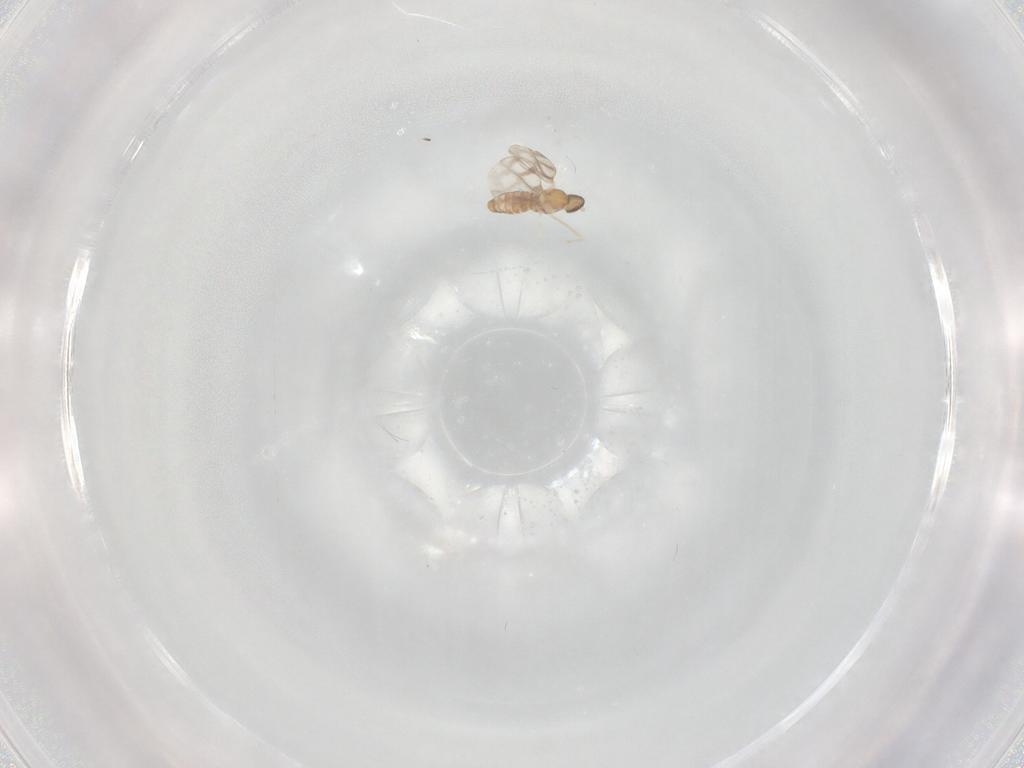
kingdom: Animalia
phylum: Arthropoda
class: Insecta
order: Diptera
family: Cecidomyiidae
